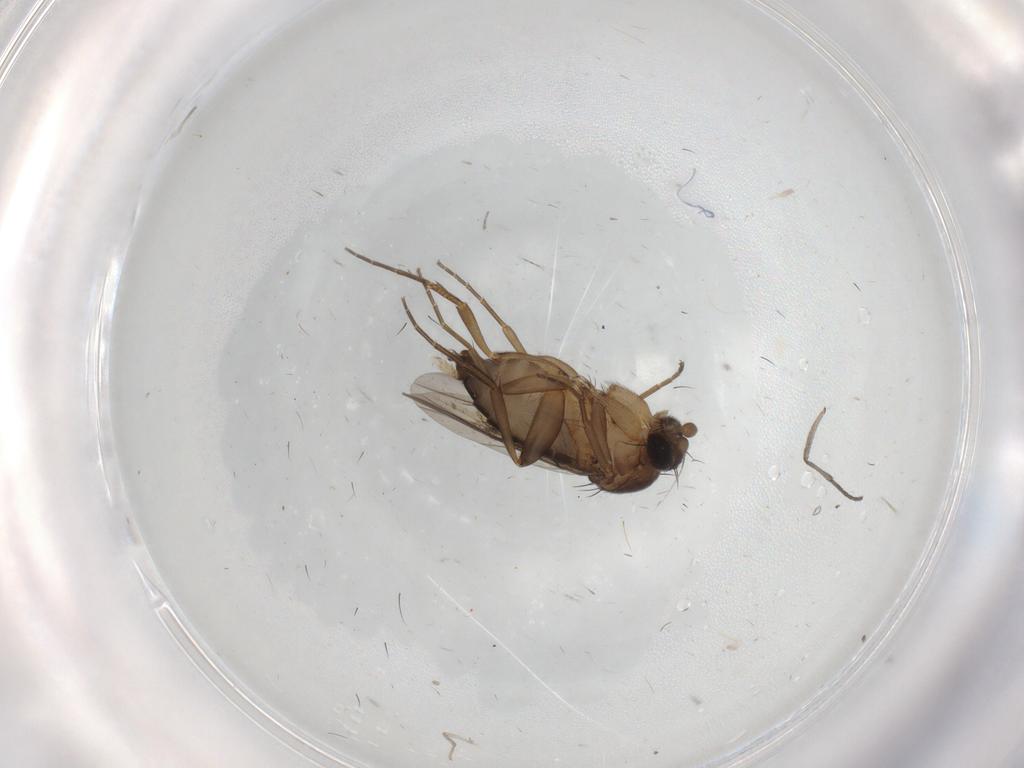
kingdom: Animalia
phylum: Arthropoda
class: Insecta
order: Diptera
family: Phoridae
